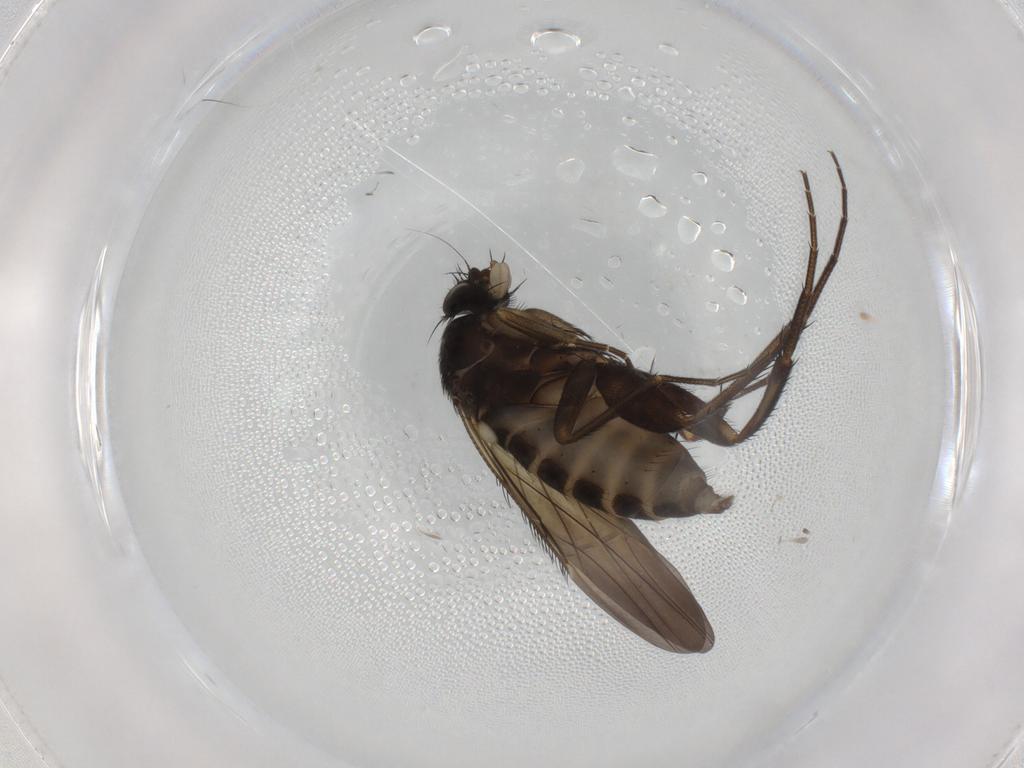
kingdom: Animalia
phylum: Arthropoda
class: Insecta
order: Diptera
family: Phoridae
